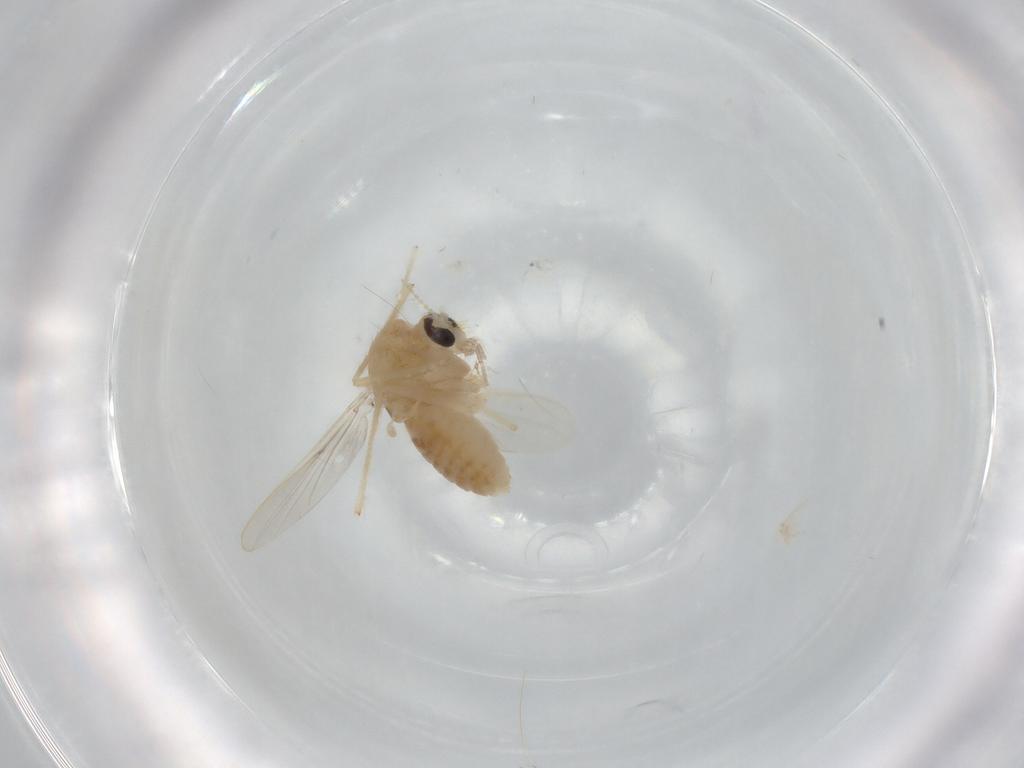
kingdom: Animalia
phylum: Arthropoda
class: Insecta
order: Diptera
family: Chironomidae
